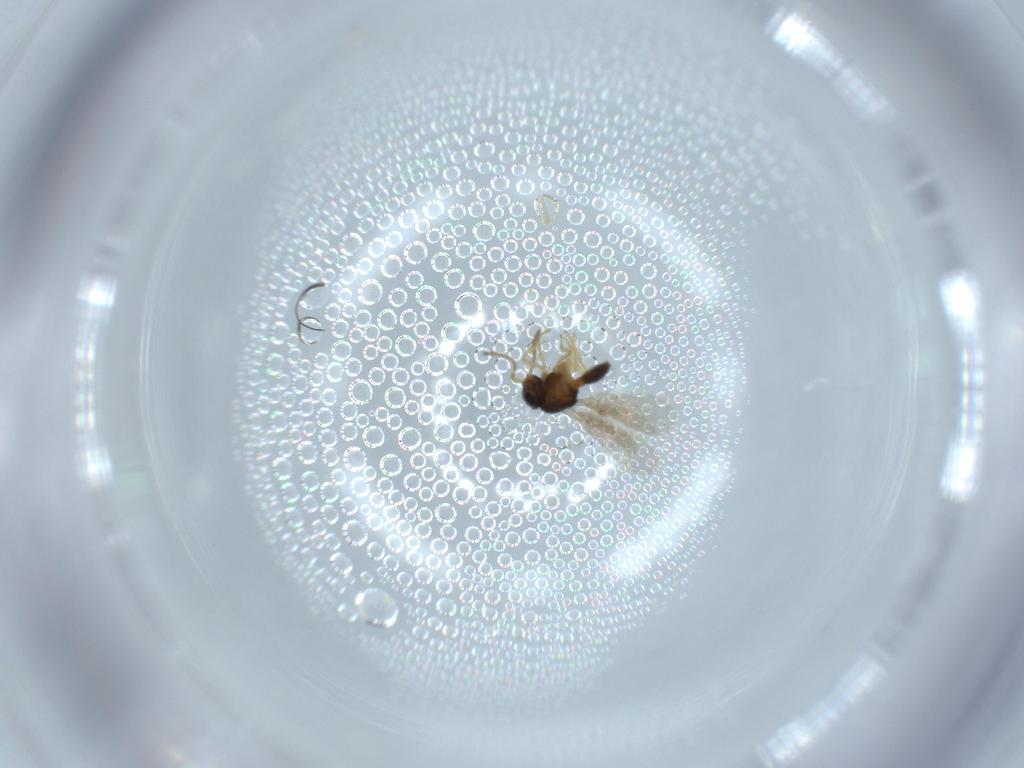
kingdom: Animalia
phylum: Arthropoda
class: Insecta
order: Hymenoptera
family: Scelionidae
